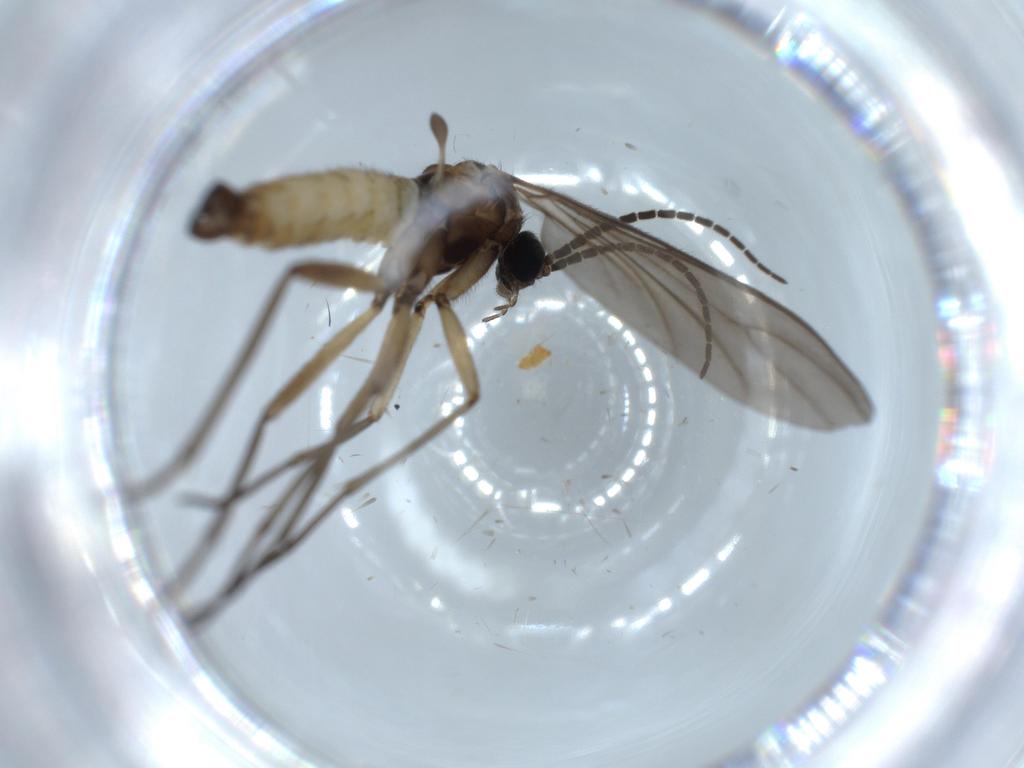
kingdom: Animalia
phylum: Arthropoda
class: Insecta
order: Diptera
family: Sciaridae
